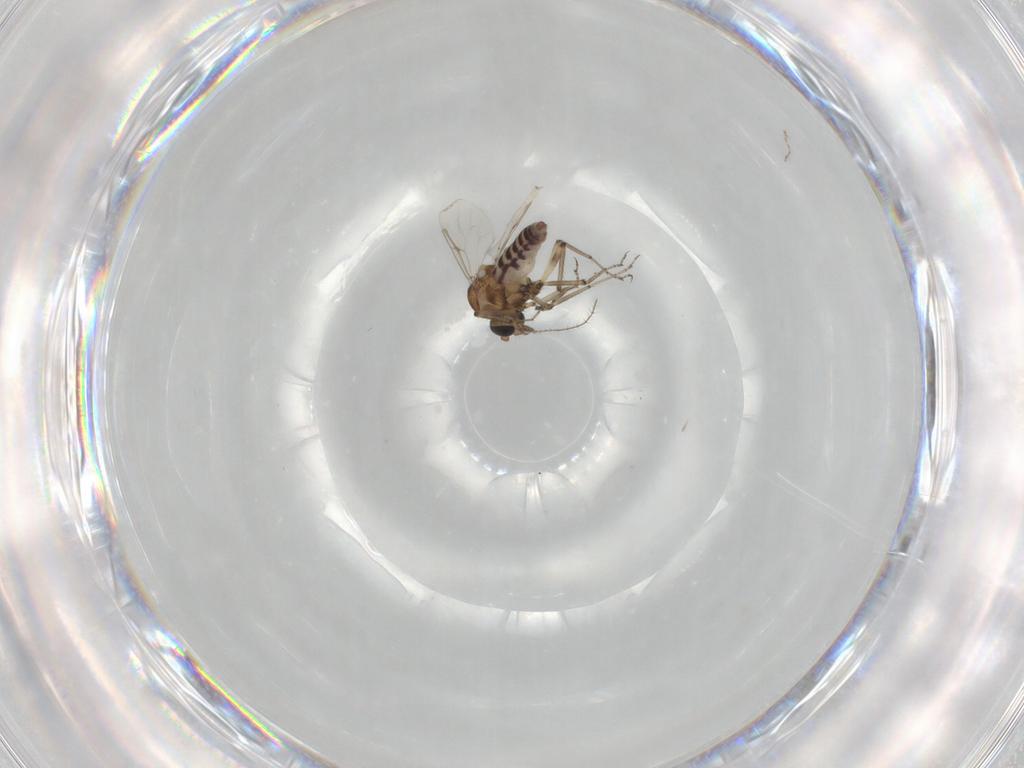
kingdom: Animalia
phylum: Arthropoda
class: Insecta
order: Diptera
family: Ceratopogonidae
